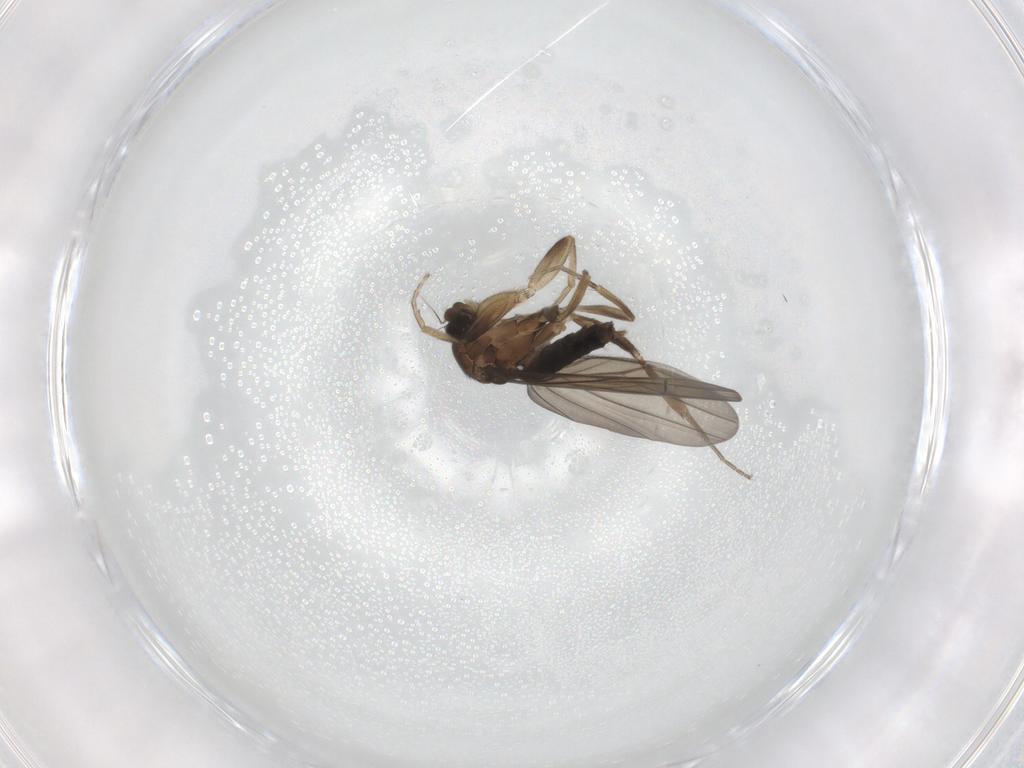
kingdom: Animalia
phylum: Arthropoda
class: Insecta
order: Diptera
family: Phoridae
